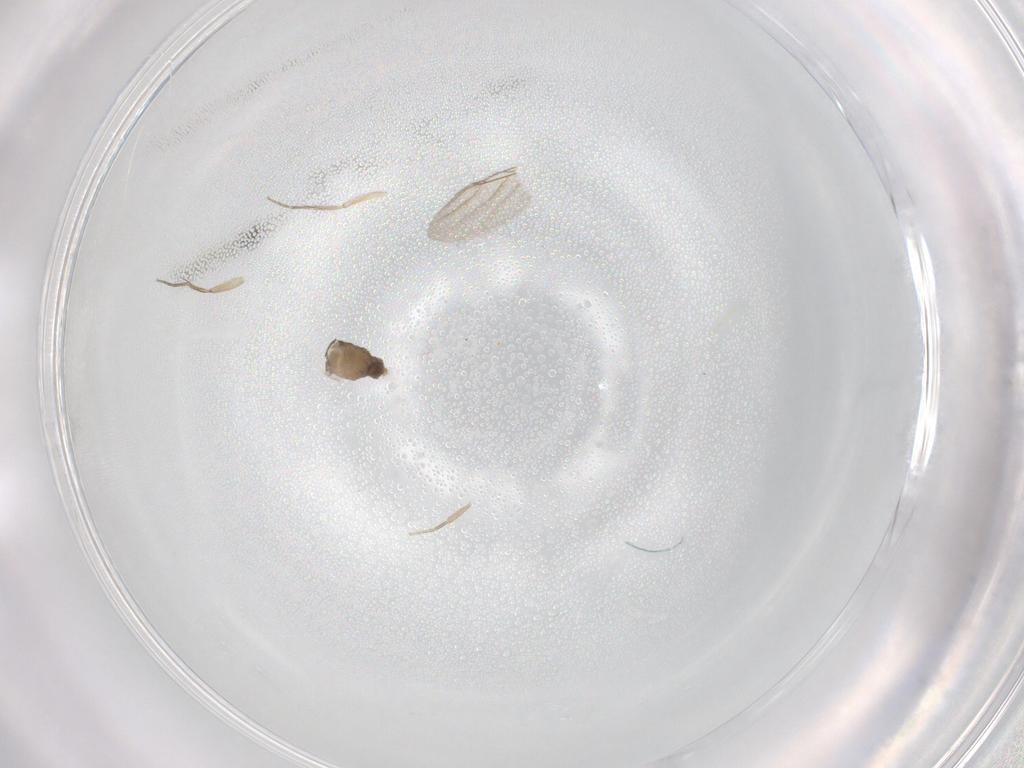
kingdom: Animalia
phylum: Arthropoda
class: Insecta
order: Diptera
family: Phoridae
